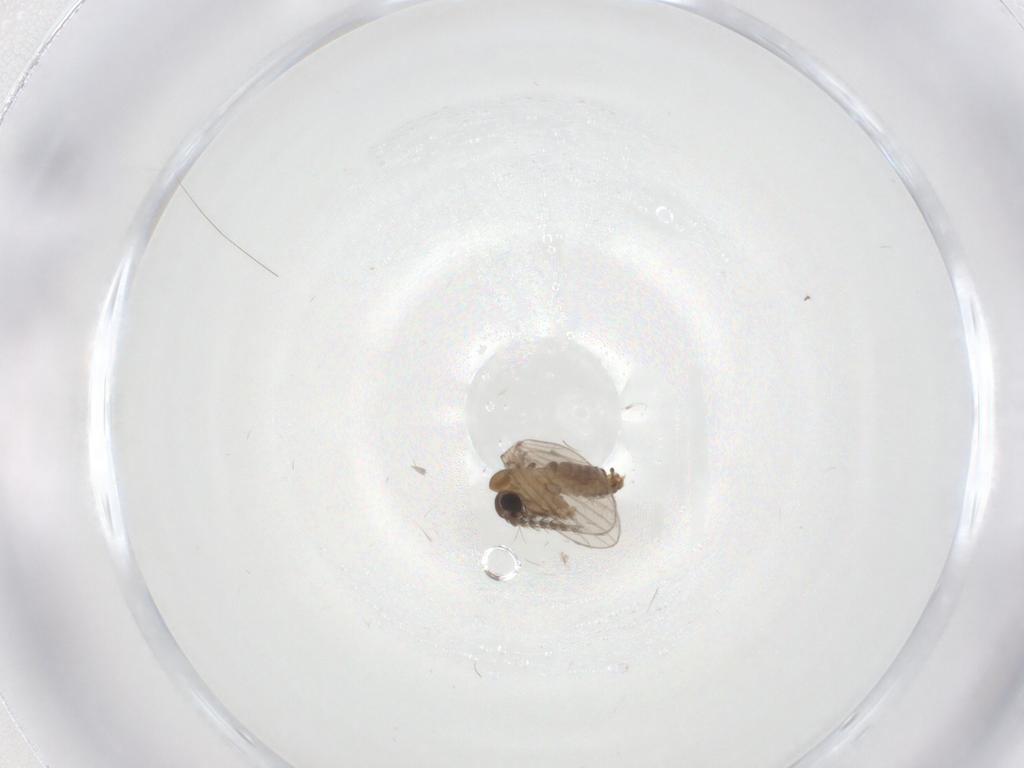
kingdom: Animalia
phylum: Arthropoda
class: Insecta
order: Diptera
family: Psychodidae
